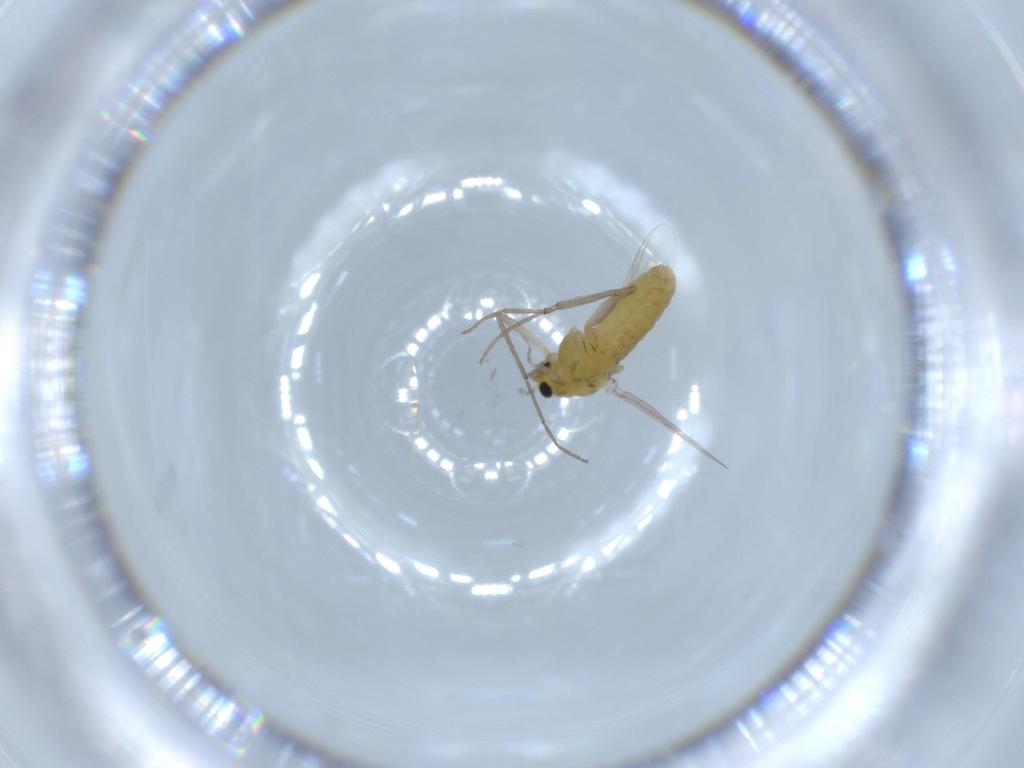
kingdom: Animalia
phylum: Arthropoda
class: Insecta
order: Diptera
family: Chironomidae
